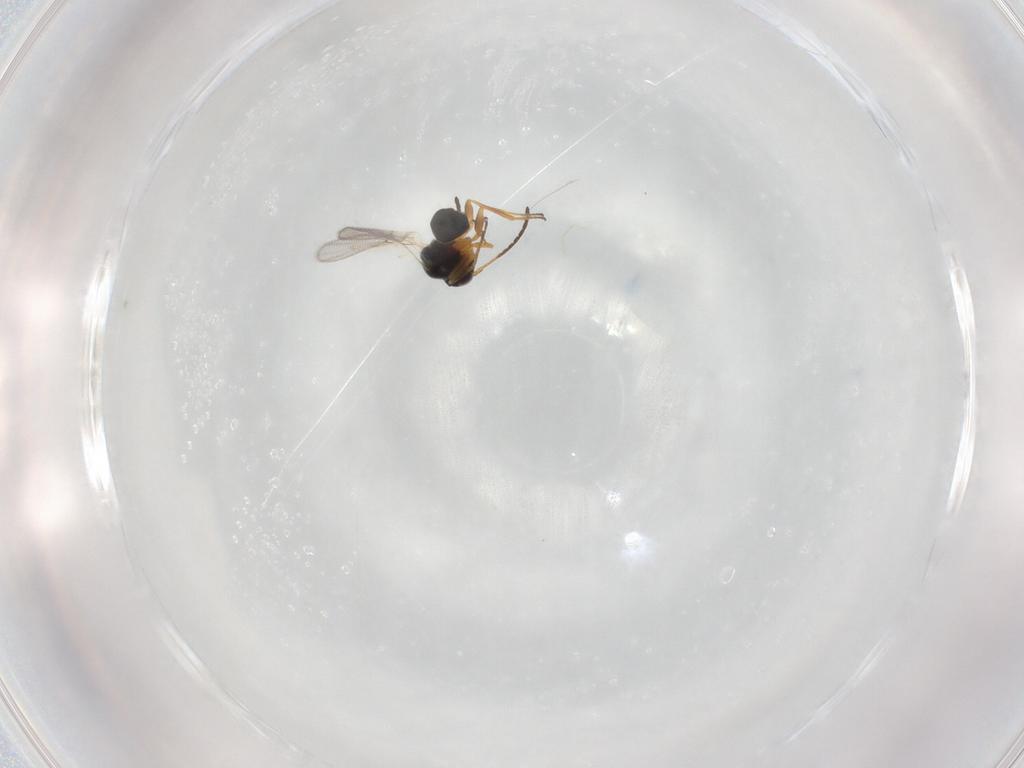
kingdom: Animalia
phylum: Arthropoda
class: Insecta
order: Hymenoptera
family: Figitidae
